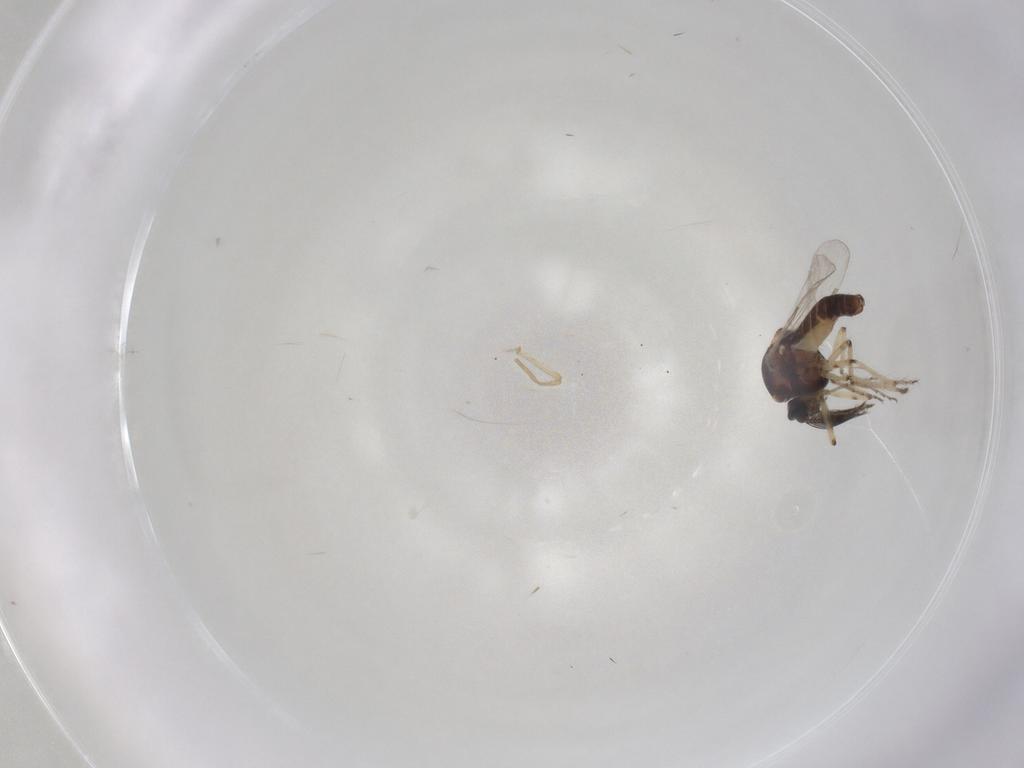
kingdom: Animalia
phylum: Arthropoda
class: Insecta
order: Diptera
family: Ceratopogonidae
